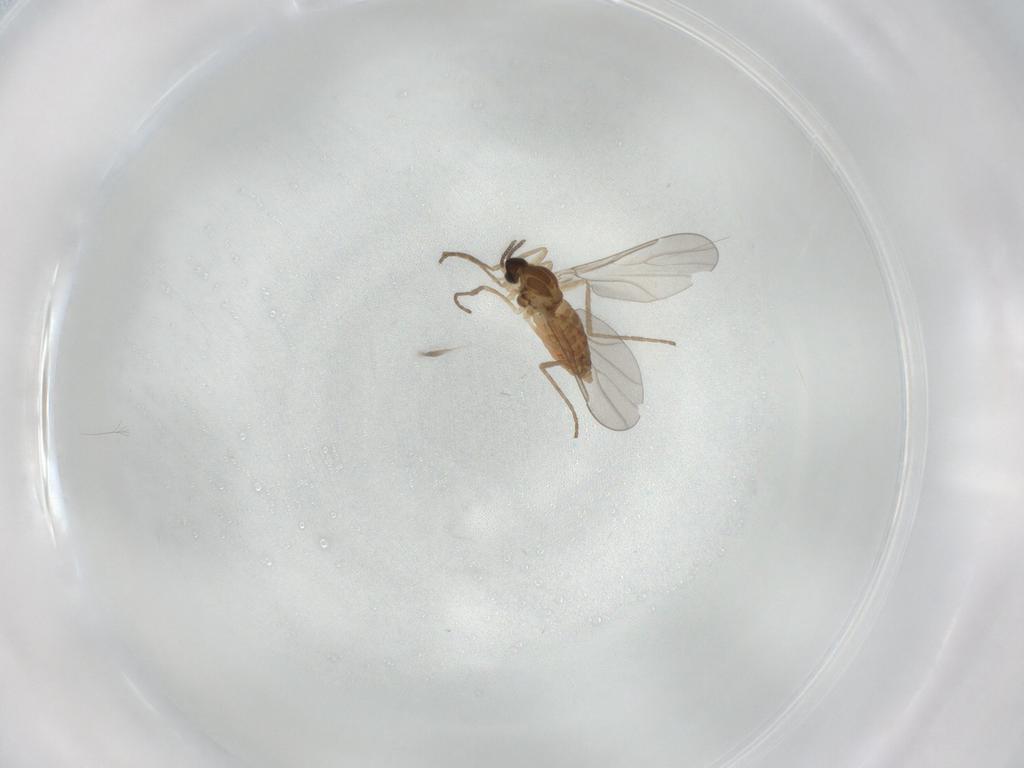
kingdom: Animalia
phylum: Arthropoda
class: Insecta
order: Diptera
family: Cecidomyiidae
